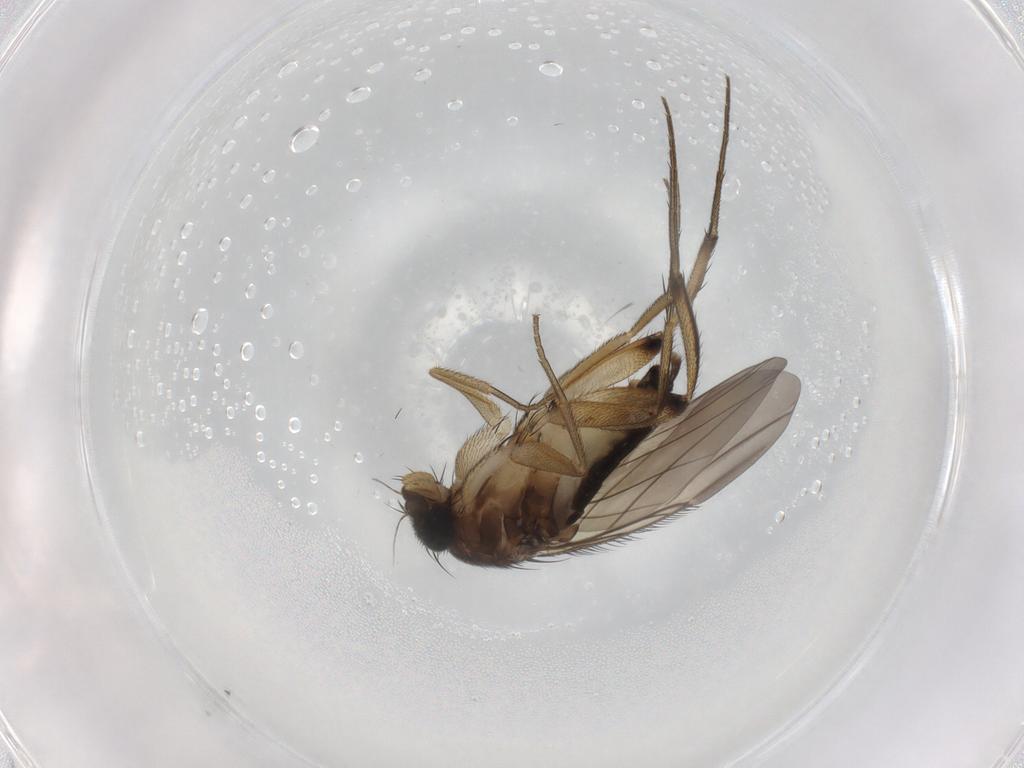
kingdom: Animalia
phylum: Arthropoda
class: Insecta
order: Diptera
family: Phoridae
